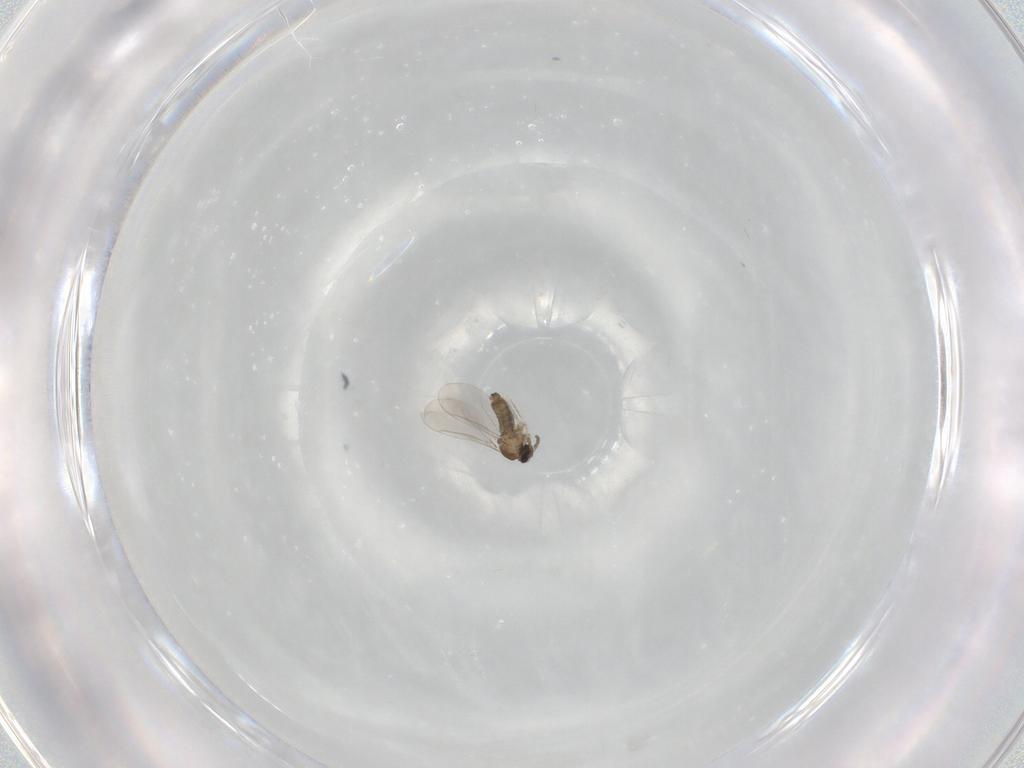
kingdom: Animalia
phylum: Arthropoda
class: Insecta
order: Diptera
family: Cecidomyiidae
